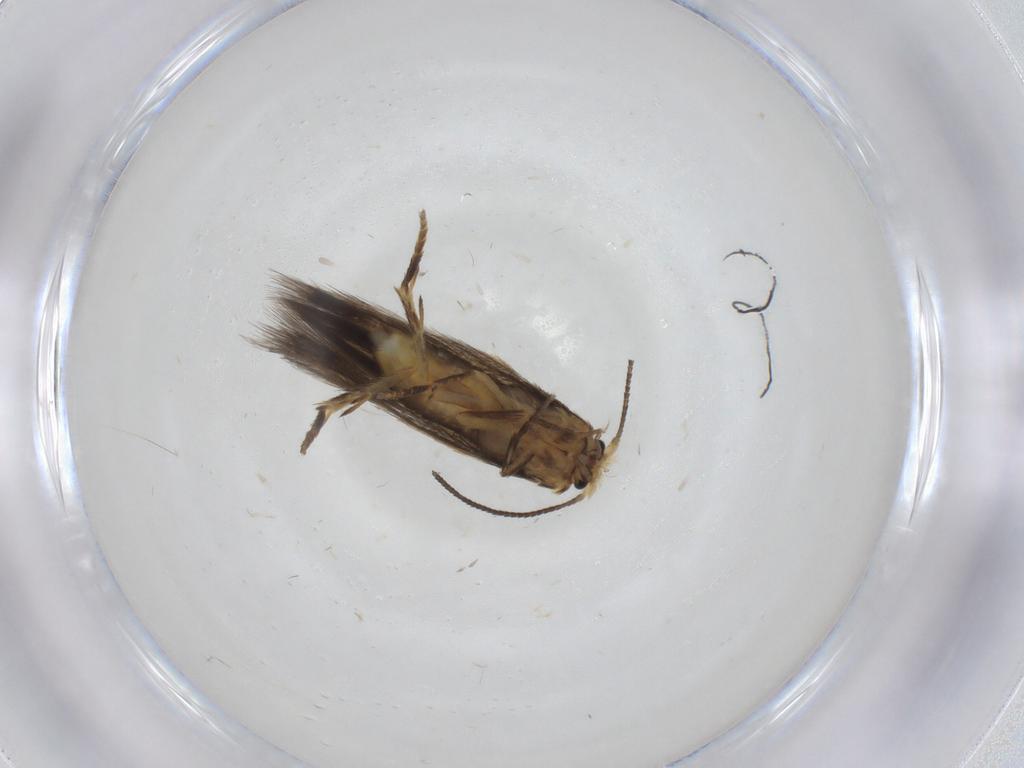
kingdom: Animalia
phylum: Arthropoda
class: Insecta
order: Lepidoptera
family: Nepticulidae
